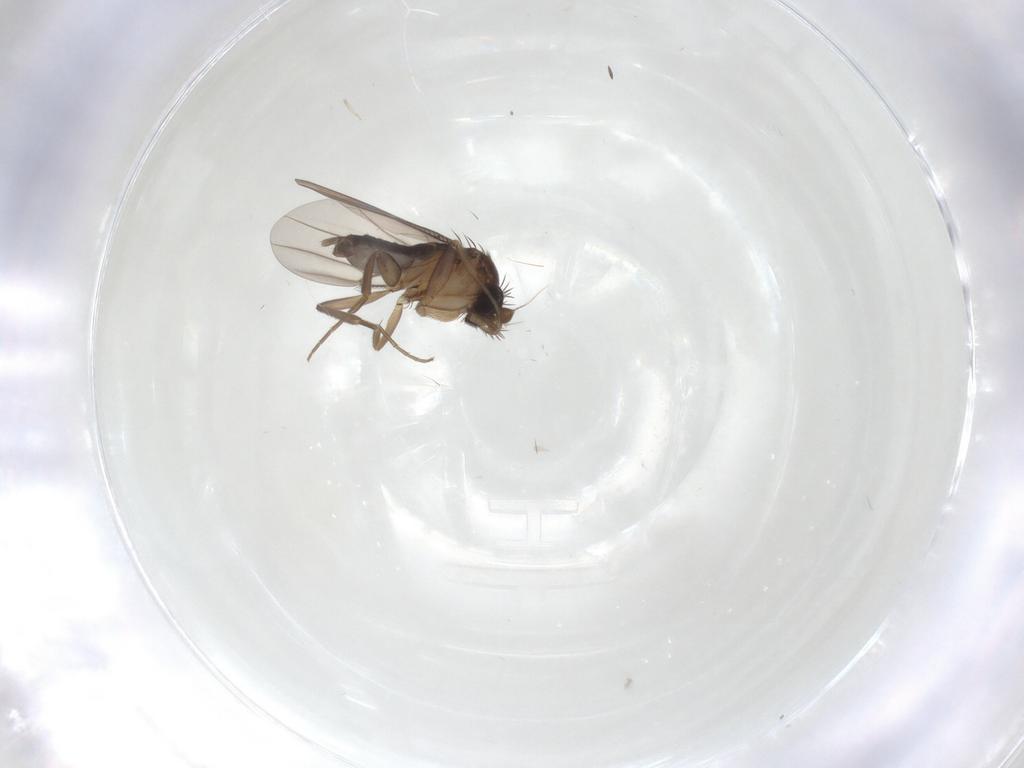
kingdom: Animalia
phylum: Arthropoda
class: Insecta
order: Diptera
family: Phoridae
